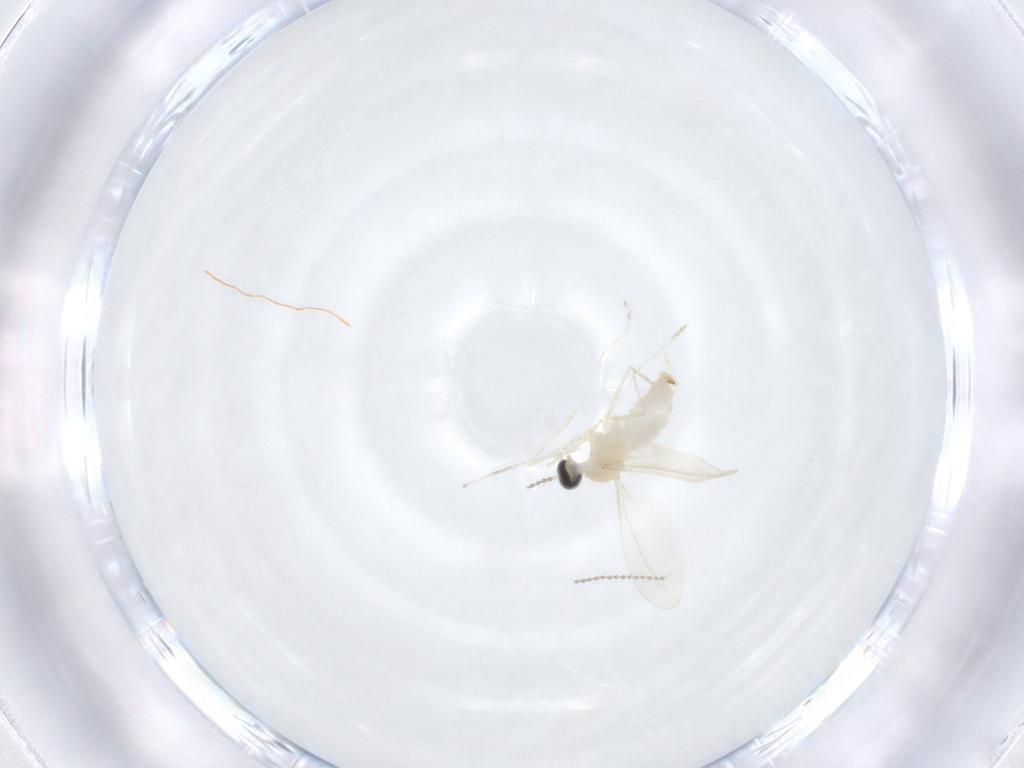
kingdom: Animalia
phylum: Arthropoda
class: Insecta
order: Diptera
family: Cecidomyiidae
